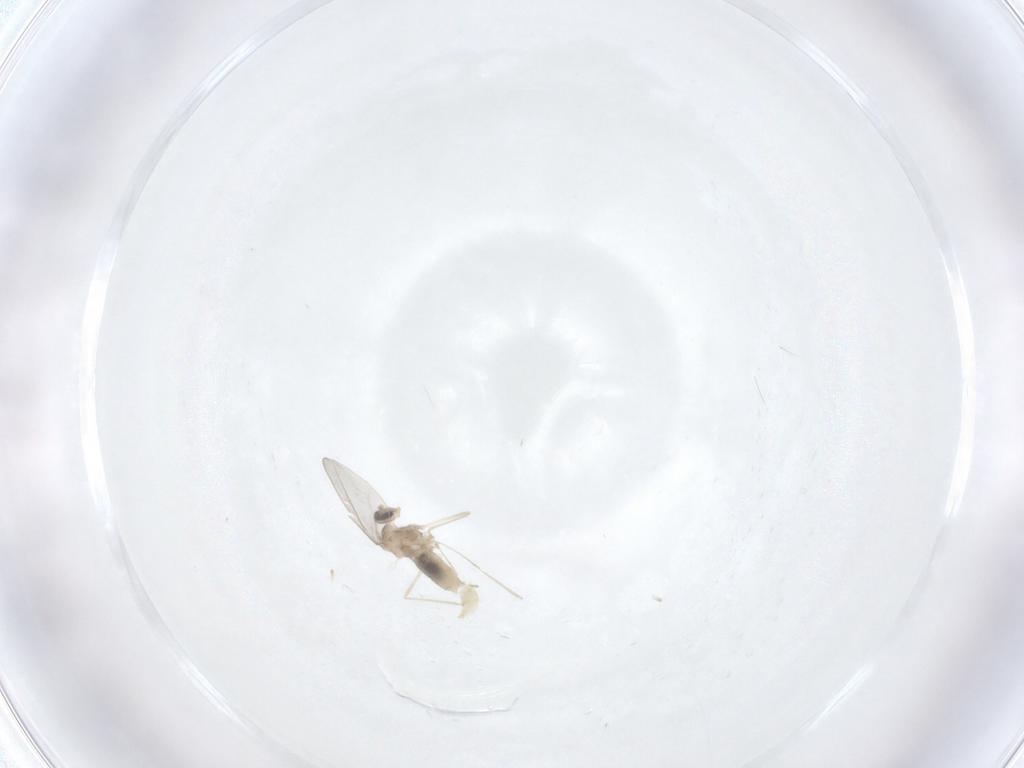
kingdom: Animalia
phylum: Arthropoda
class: Insecta
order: Diptera
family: Cecidomyiidae
